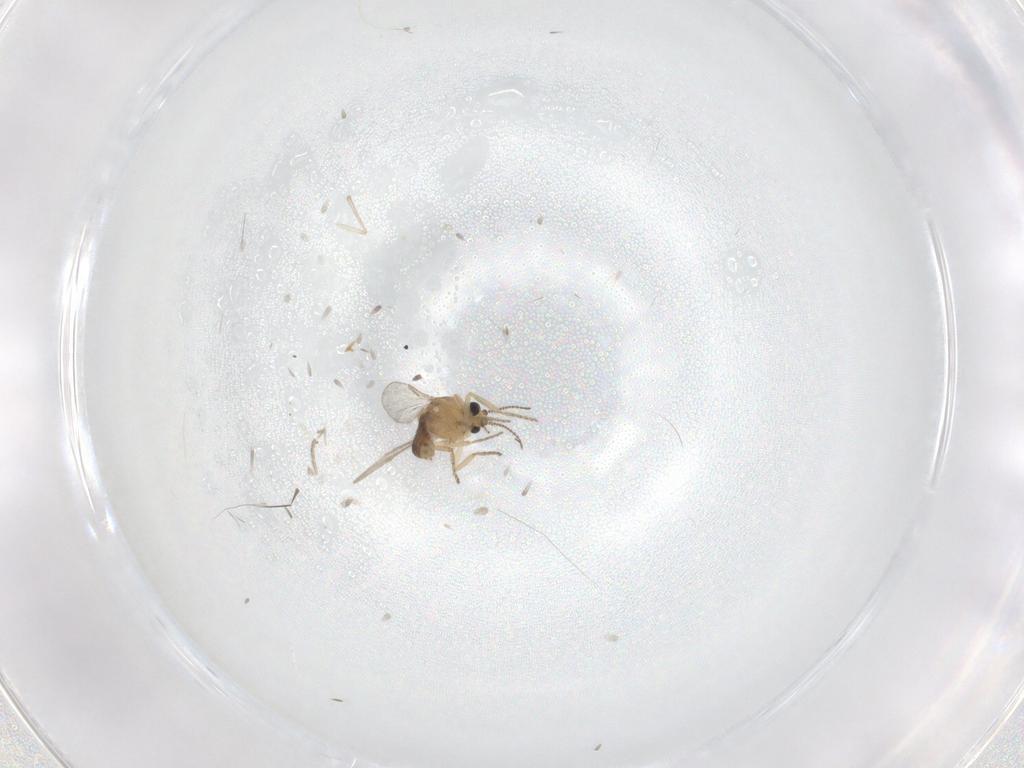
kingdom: Animalia
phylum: Arthropoda
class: Insecta
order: Diptera
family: Ceratopogonidae
